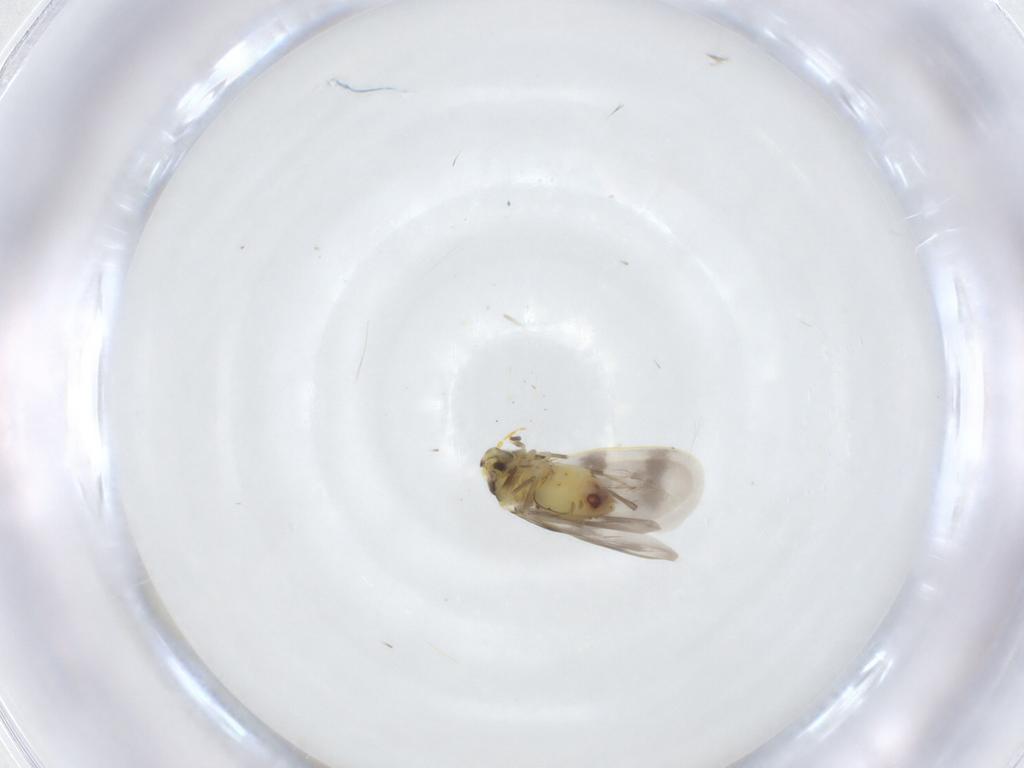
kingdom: Animalia
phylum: Arthropoda
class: Insecta
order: Hemiptera
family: Aleyrodidae
